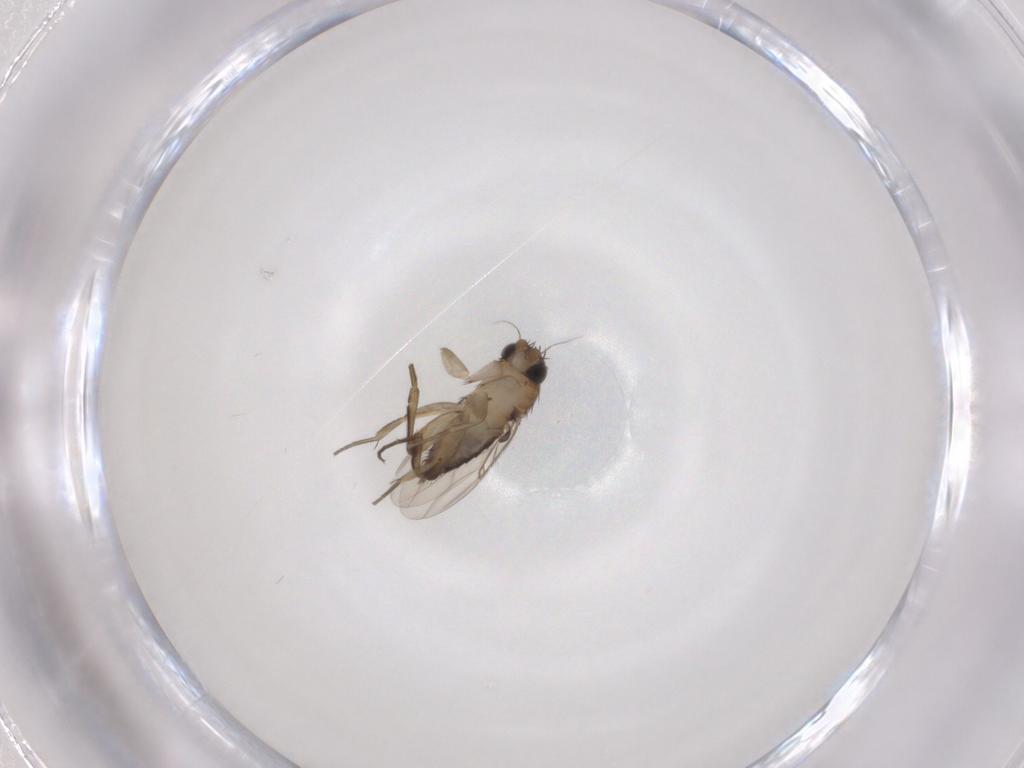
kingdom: Animalia
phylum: Arthropoda
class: Insecta
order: Diptera
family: Phoridae
